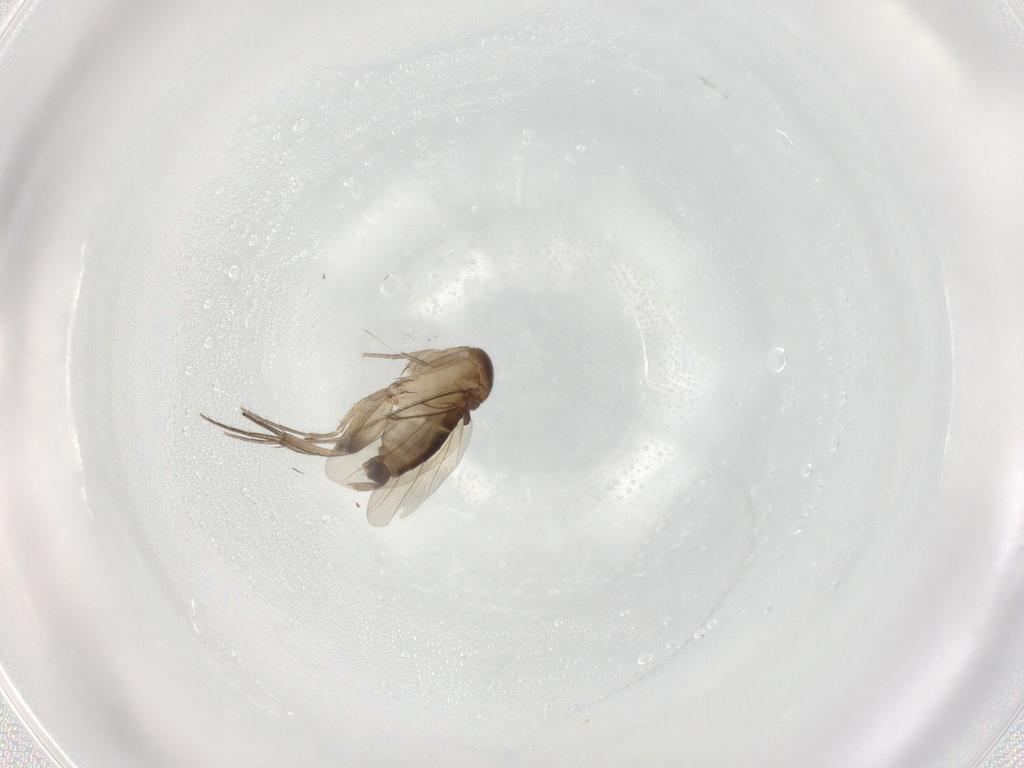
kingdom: Animalia
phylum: Arthropoda
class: Insecta
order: Diptera
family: Phoridae
